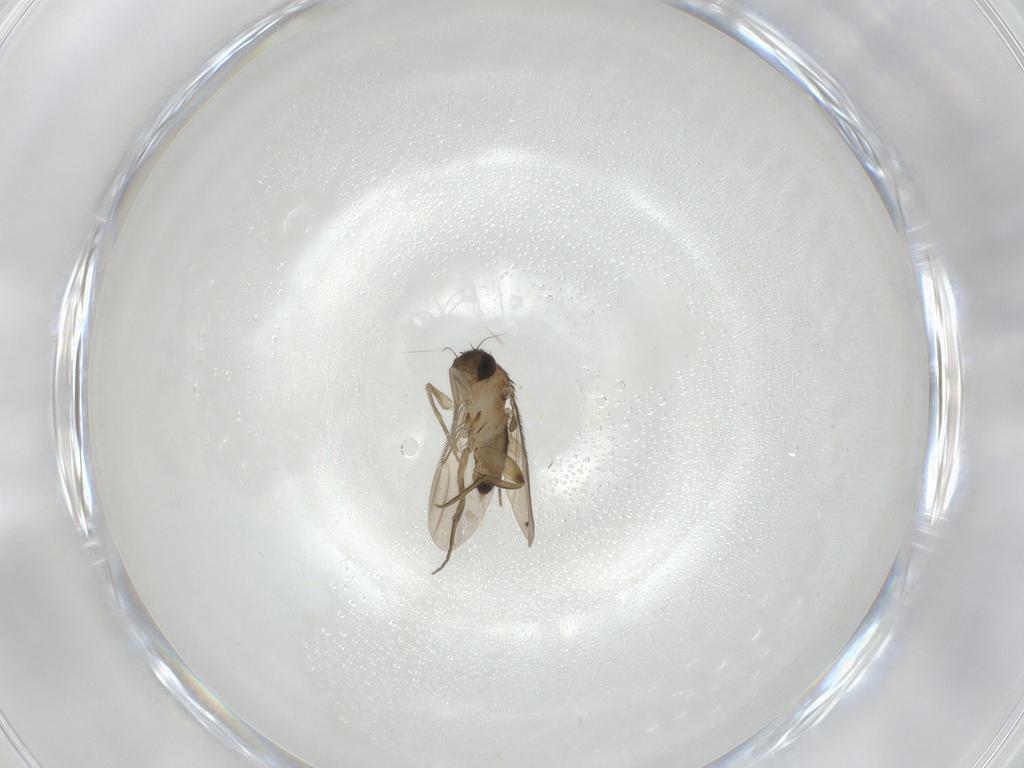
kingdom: Animalia
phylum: Arthropoda
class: Insecta
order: Diptera
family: Phoridae
